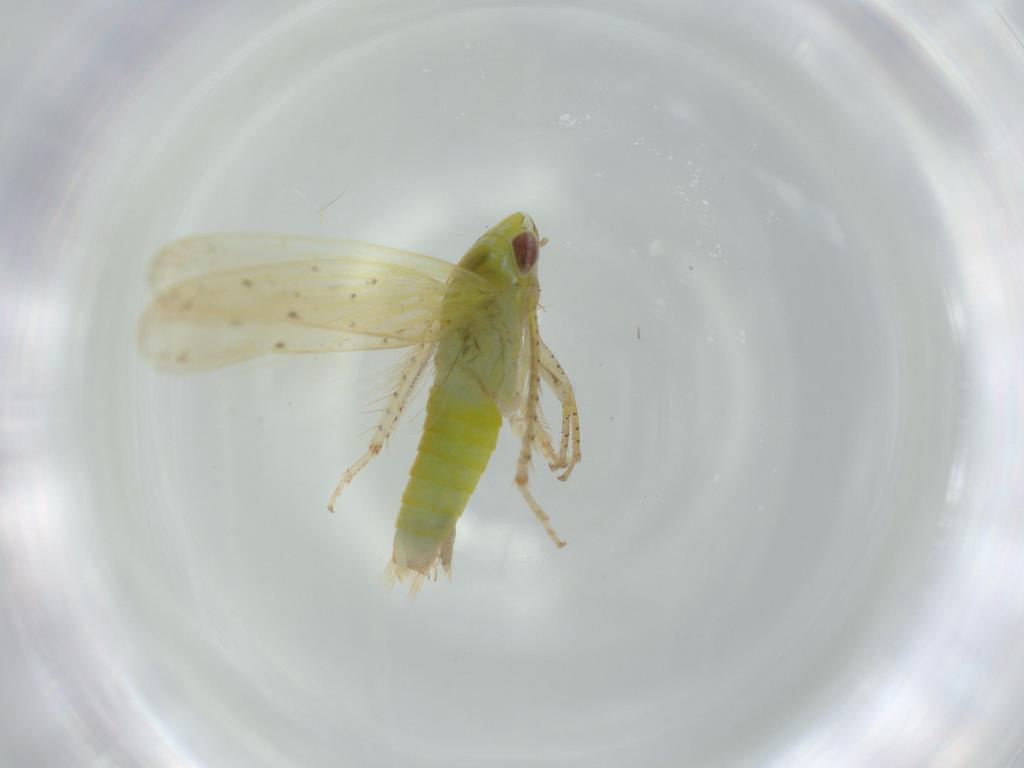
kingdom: Animalia
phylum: Arthropoda
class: Insecta
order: Hemiptera
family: Cicadellidae
